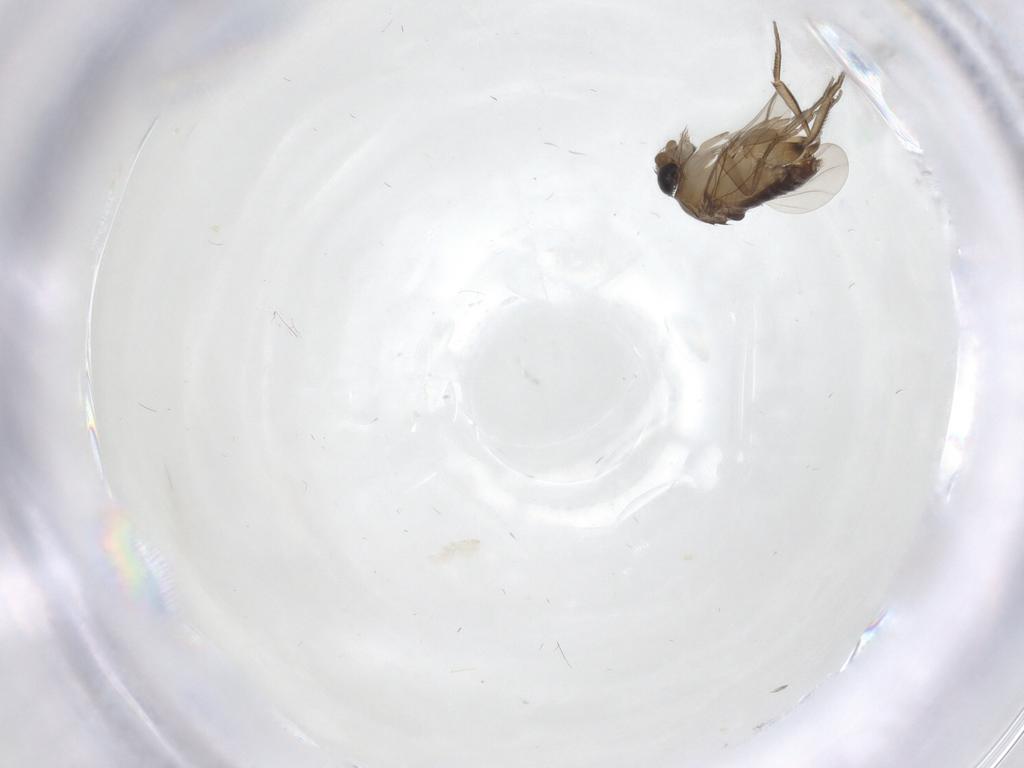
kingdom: Animalia
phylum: Arthropoda
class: Insecta
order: Diptera
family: Phoridae
